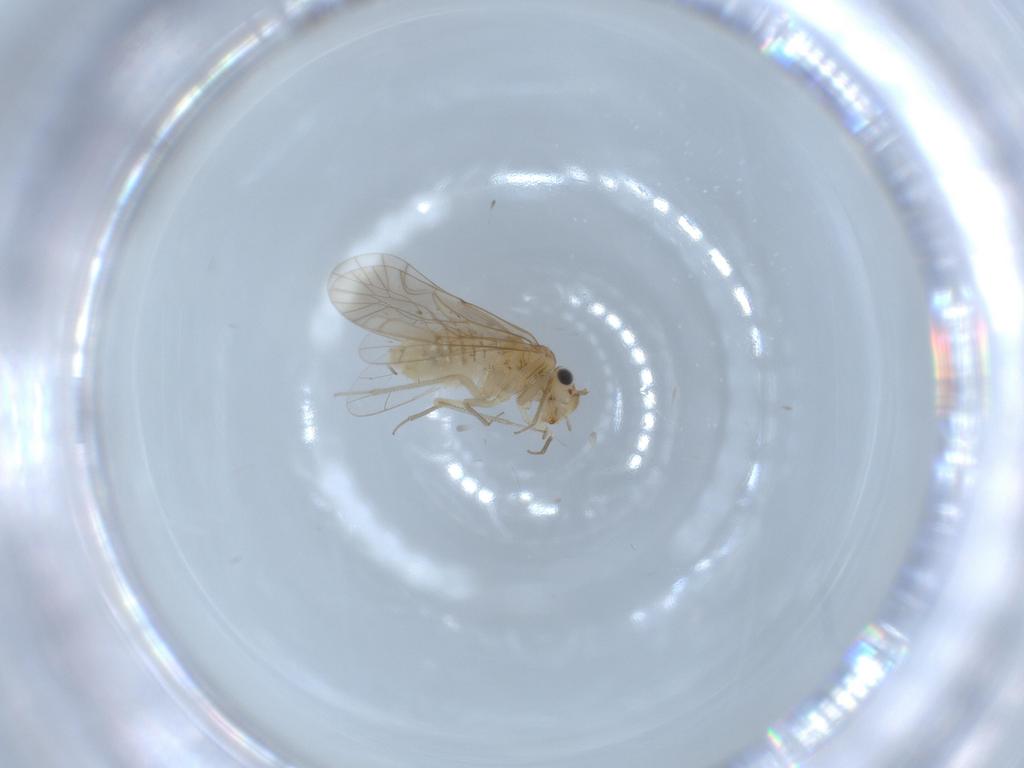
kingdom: Animalia
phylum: Arthropoda
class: Insecta
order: Psocodea
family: Lachesillidae
